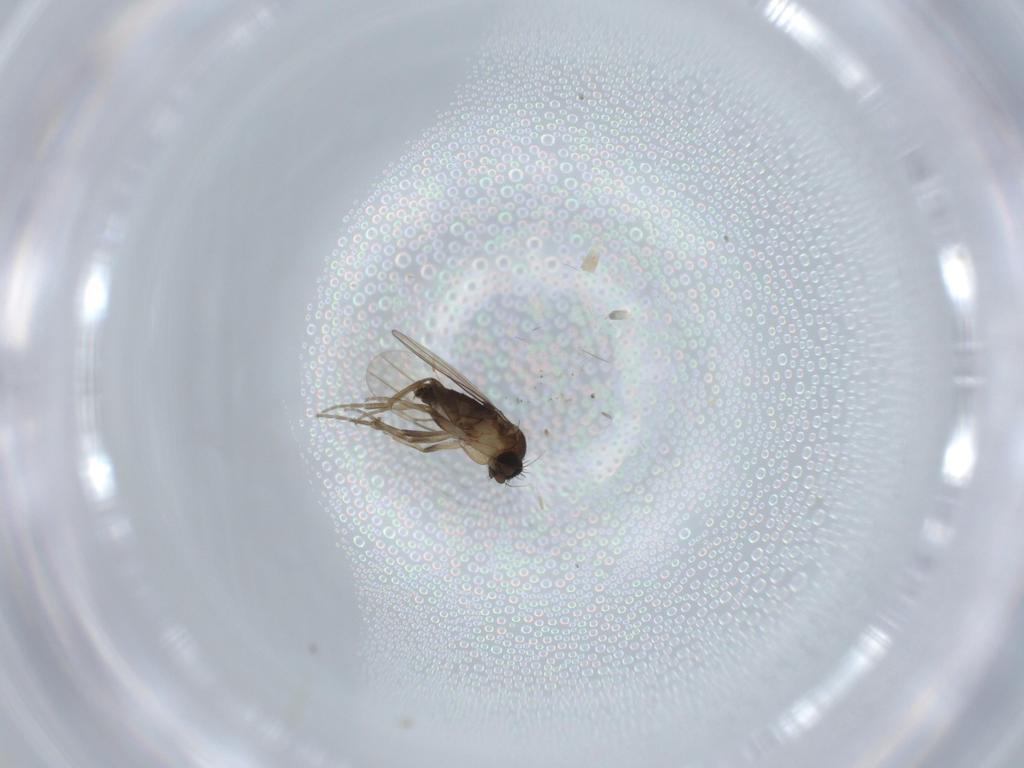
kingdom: Animalia
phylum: Arthropoda
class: Insecta
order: Diptera
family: Phoridae
